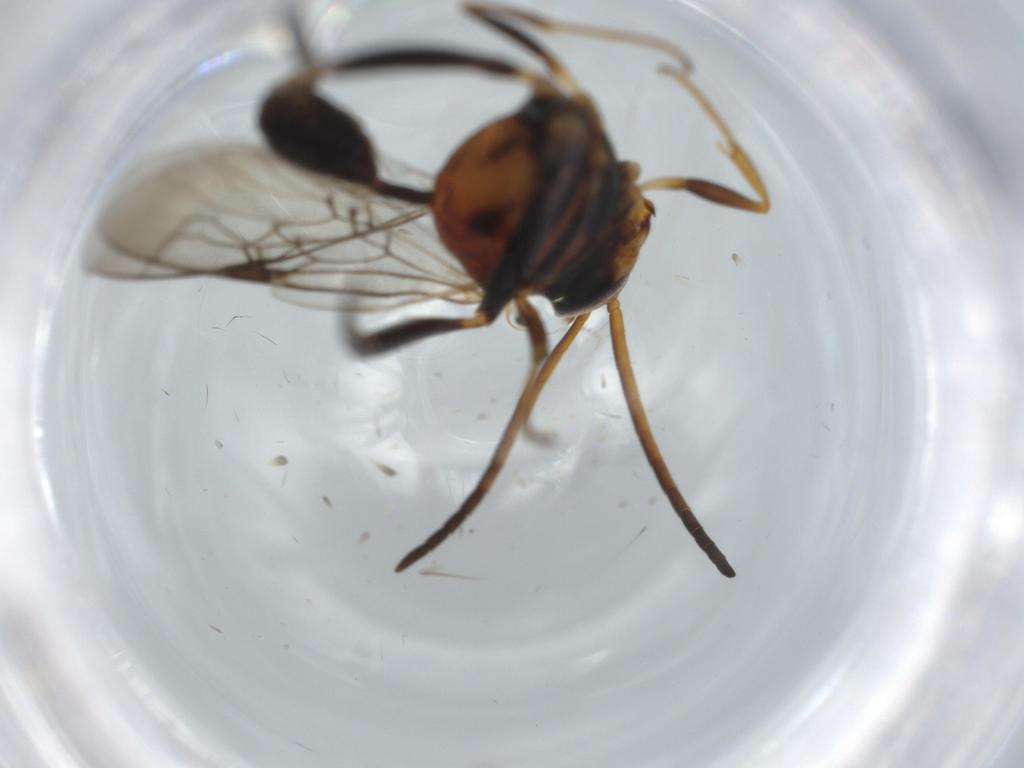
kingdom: Animalia
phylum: Arthropoda
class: Insecta
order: Hymenoptera
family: Evaniidae
